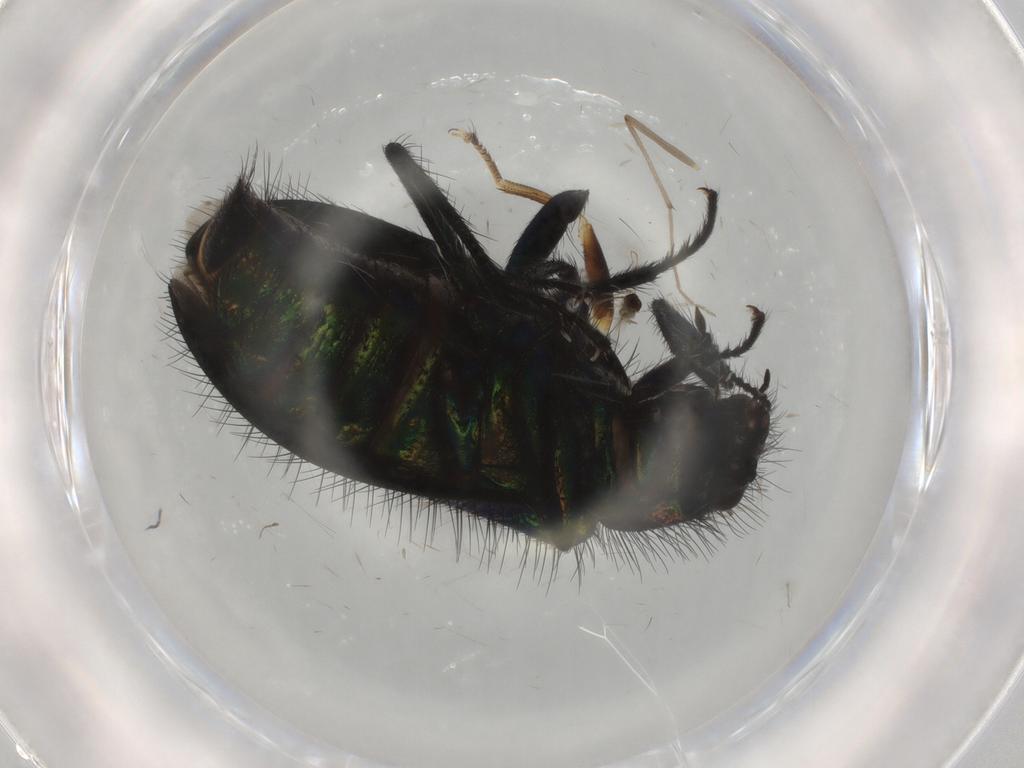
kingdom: Animalia
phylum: Arthropoda
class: Insecta
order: Coleoptera
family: Melyridae
